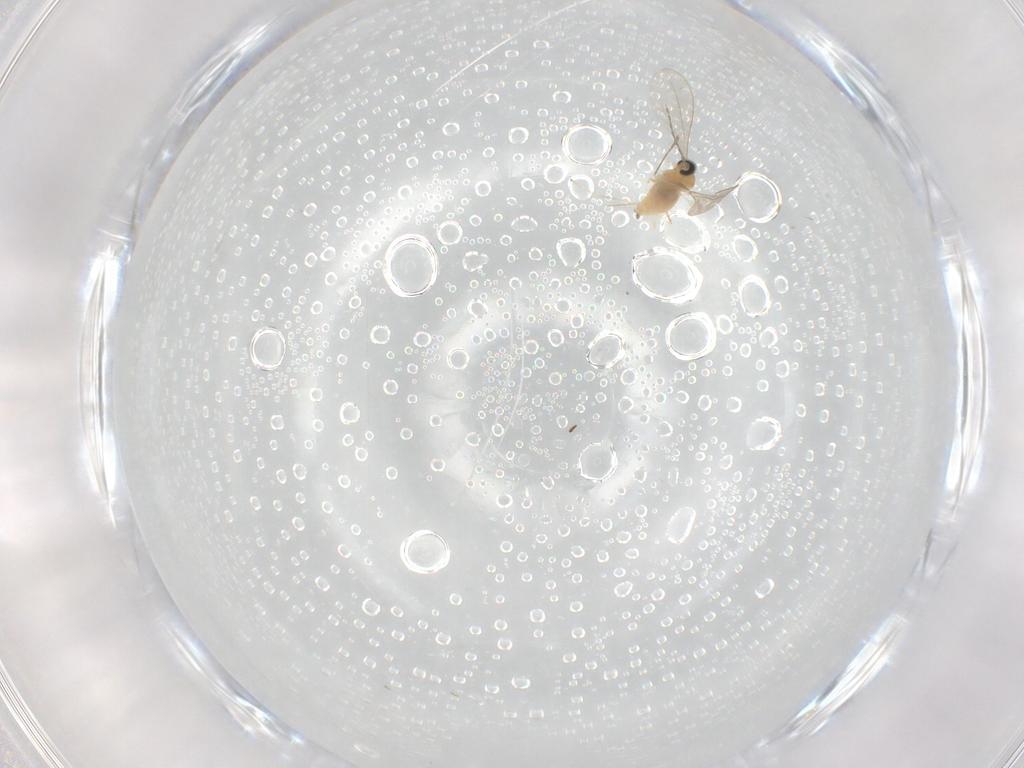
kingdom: Animalia
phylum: Arthropoda
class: Insecta
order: Diptera
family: Cecidomyiidae
